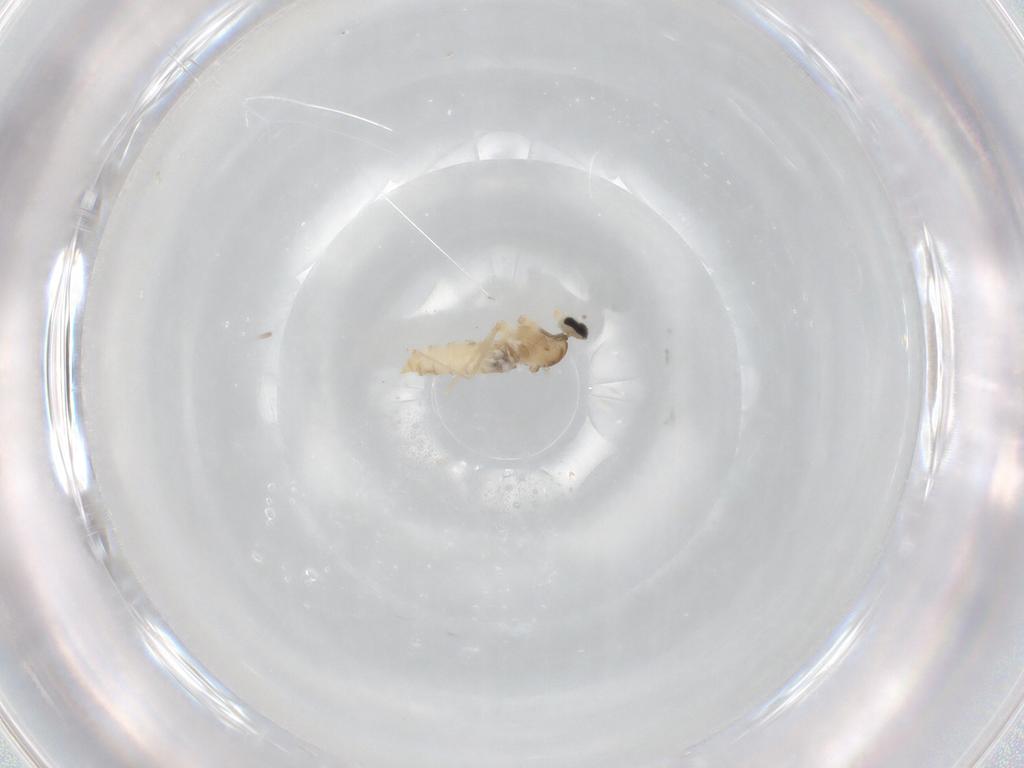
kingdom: Animalia
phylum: Arthropoda
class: Insecta
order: Diptera
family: Cecidomyiidae
